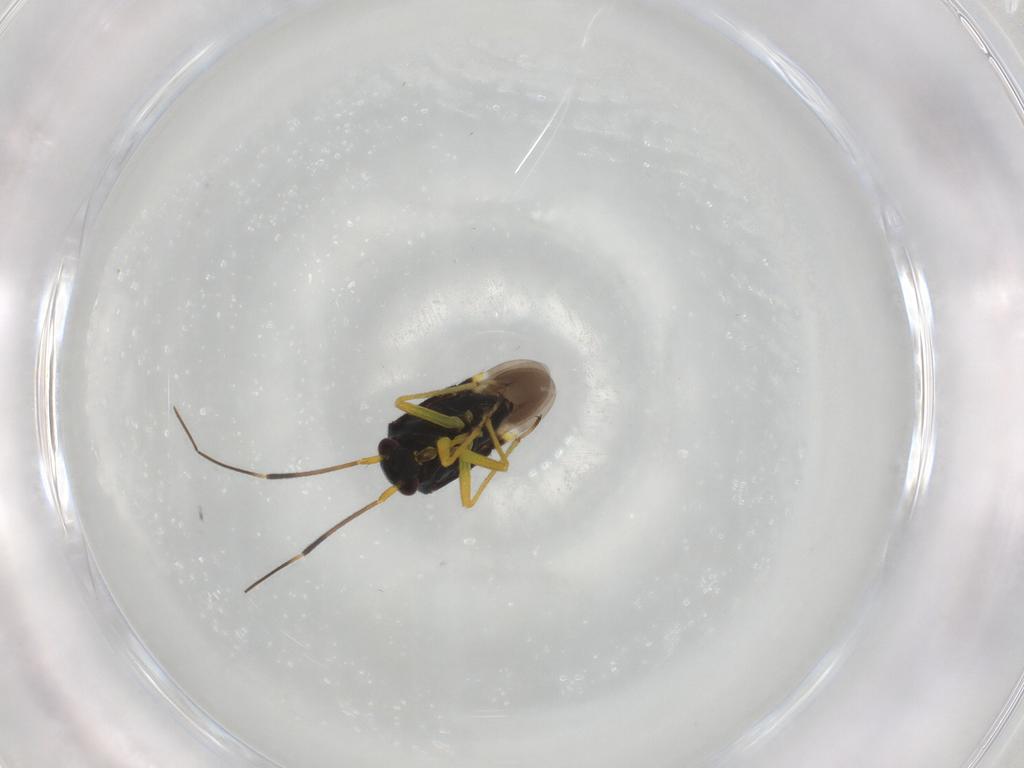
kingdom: Animalia
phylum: Arthropoda
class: Insecta
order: Hemiptera
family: Miridae
